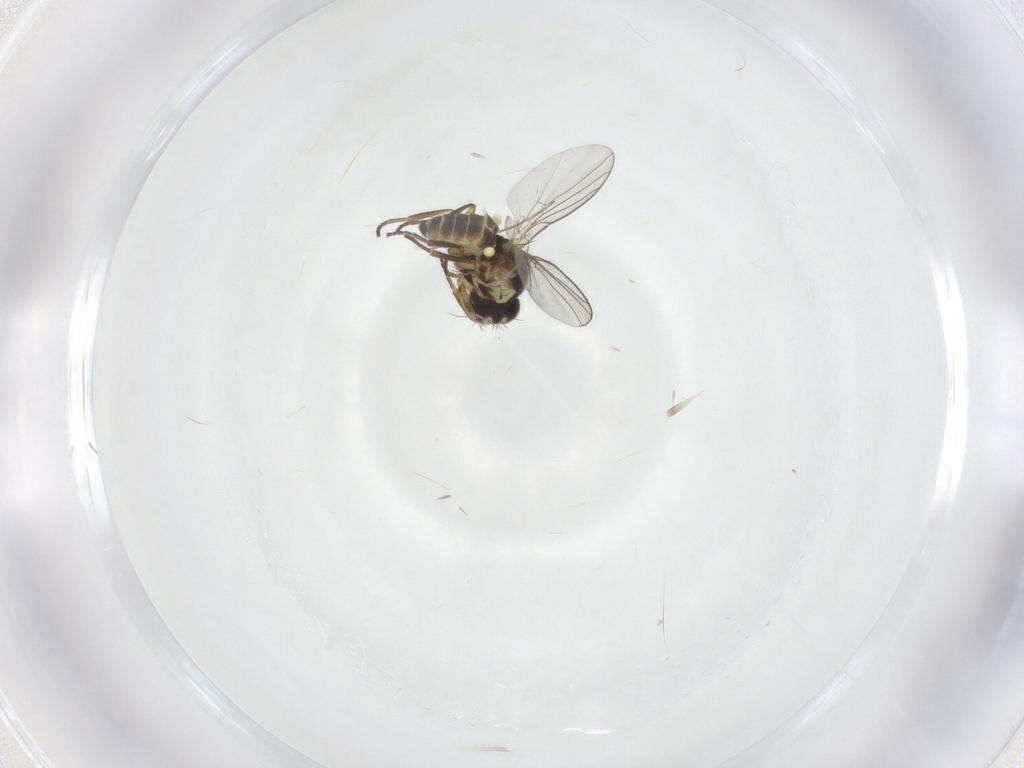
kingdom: Animalia
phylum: Arthropoda
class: Insecta
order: Diptera
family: Agromyzidae
